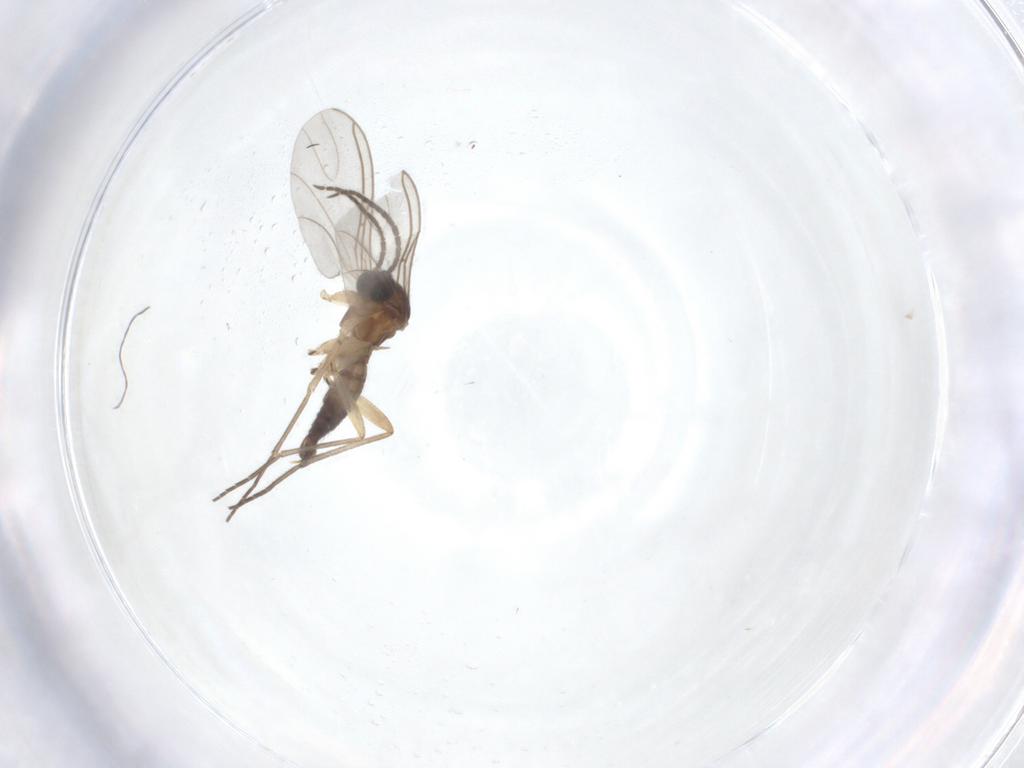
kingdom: Animalia
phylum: Arthropoda
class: Insecta
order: Diptera
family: Sciaridae
